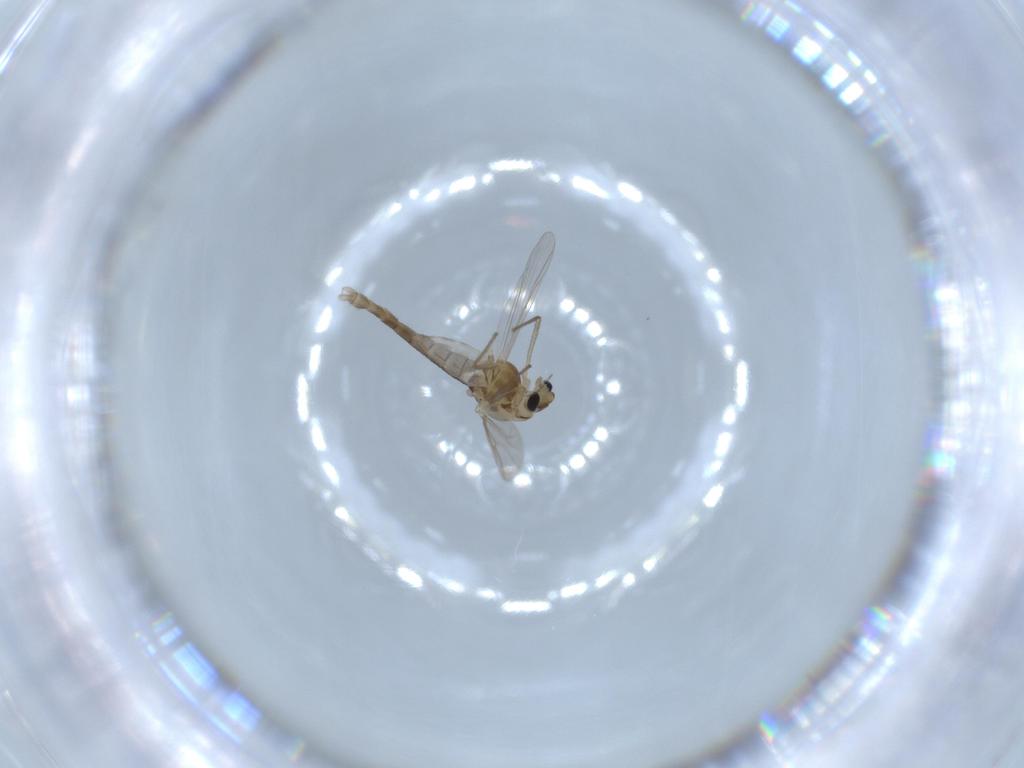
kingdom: Animalia
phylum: Arthropoda
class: Insecta
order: Diptera
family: Chironomidae
